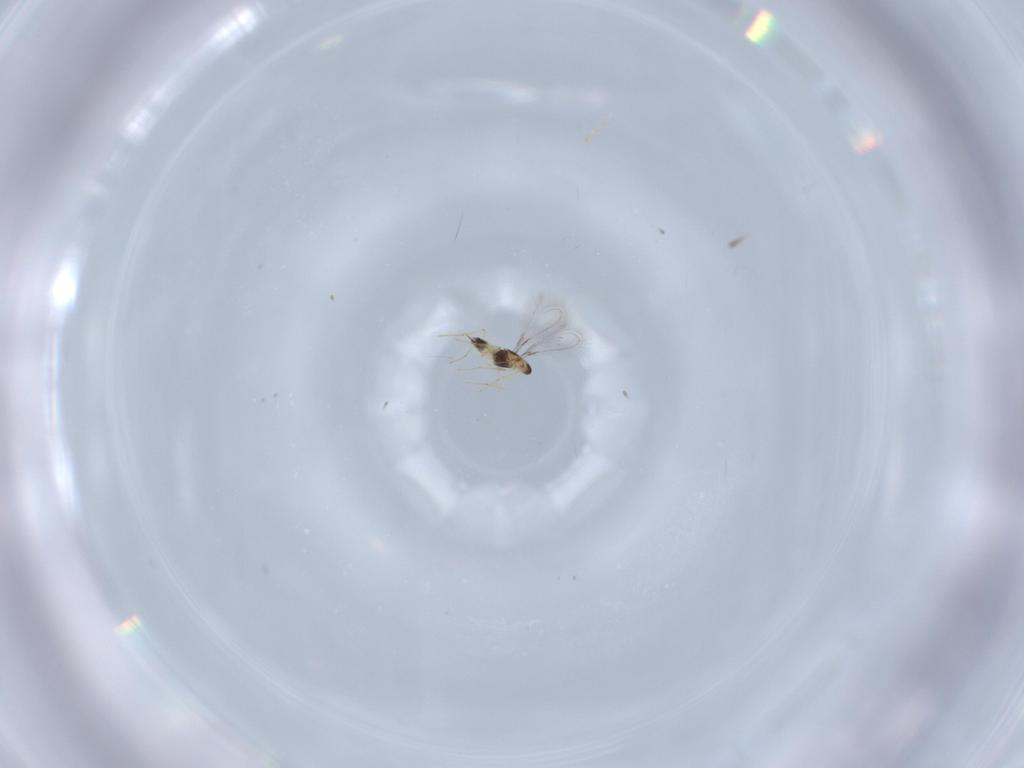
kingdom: Animalia
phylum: Arthropoda
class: Insecta
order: Hymenoptera
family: Mymaridae
